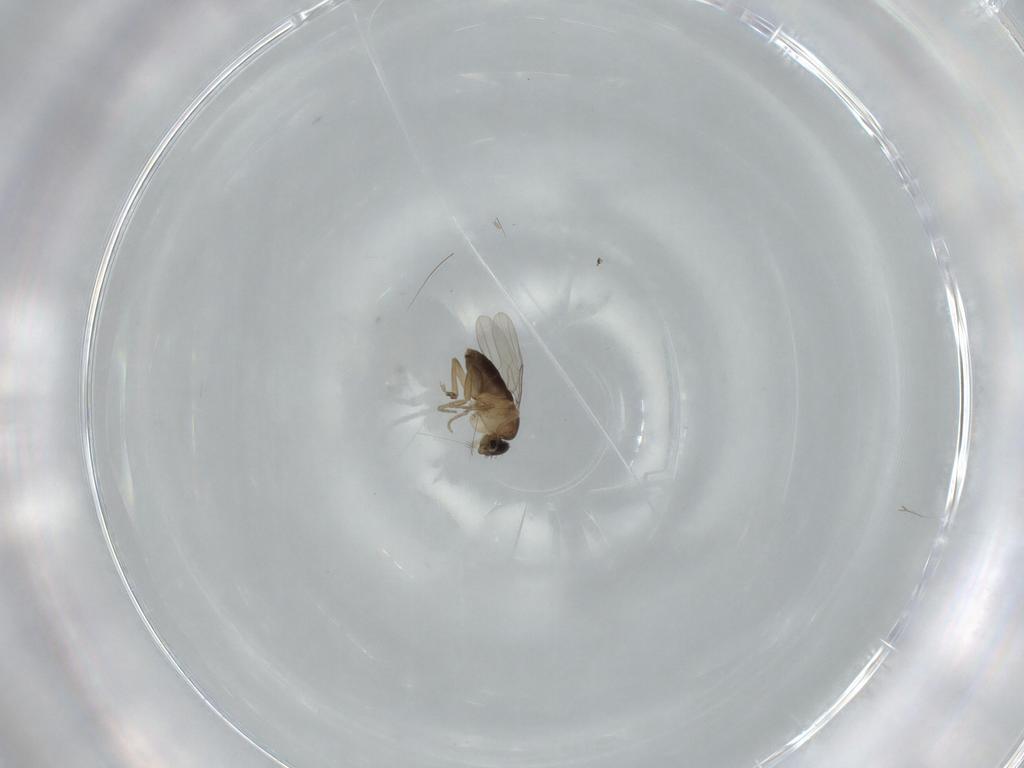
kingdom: Animalia
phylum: Arthropoda
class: Insecta
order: Diptera
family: Phoridae
